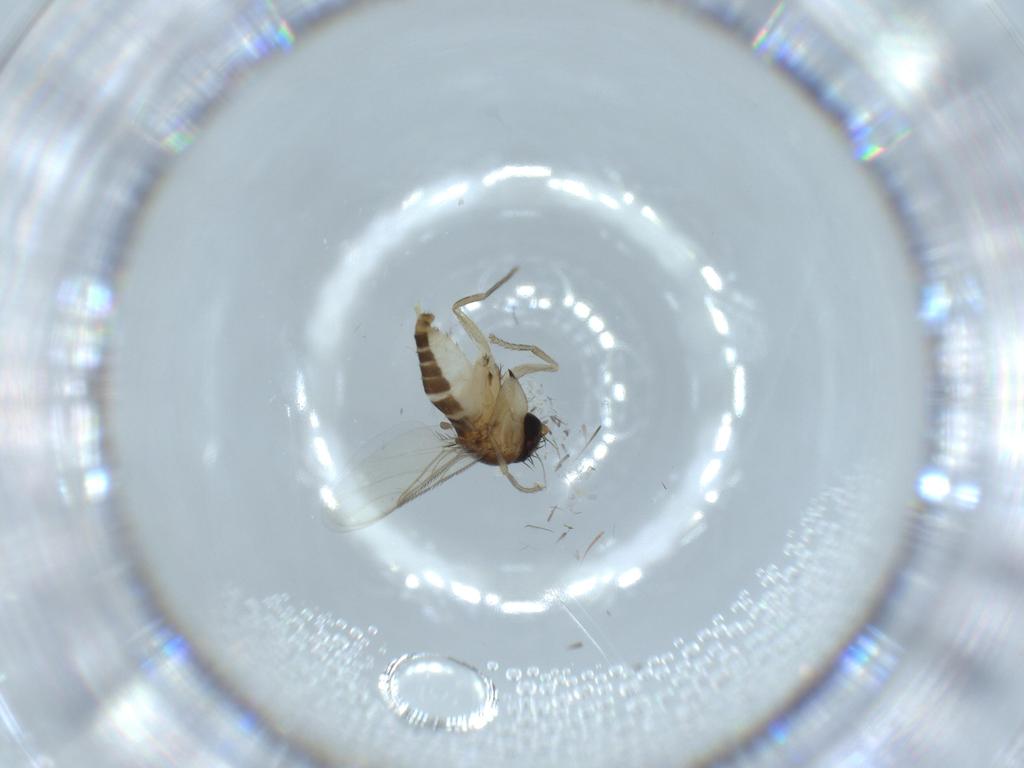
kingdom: Animalia
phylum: Arthropoda
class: Insecta
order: Diptera
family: Phoridae
